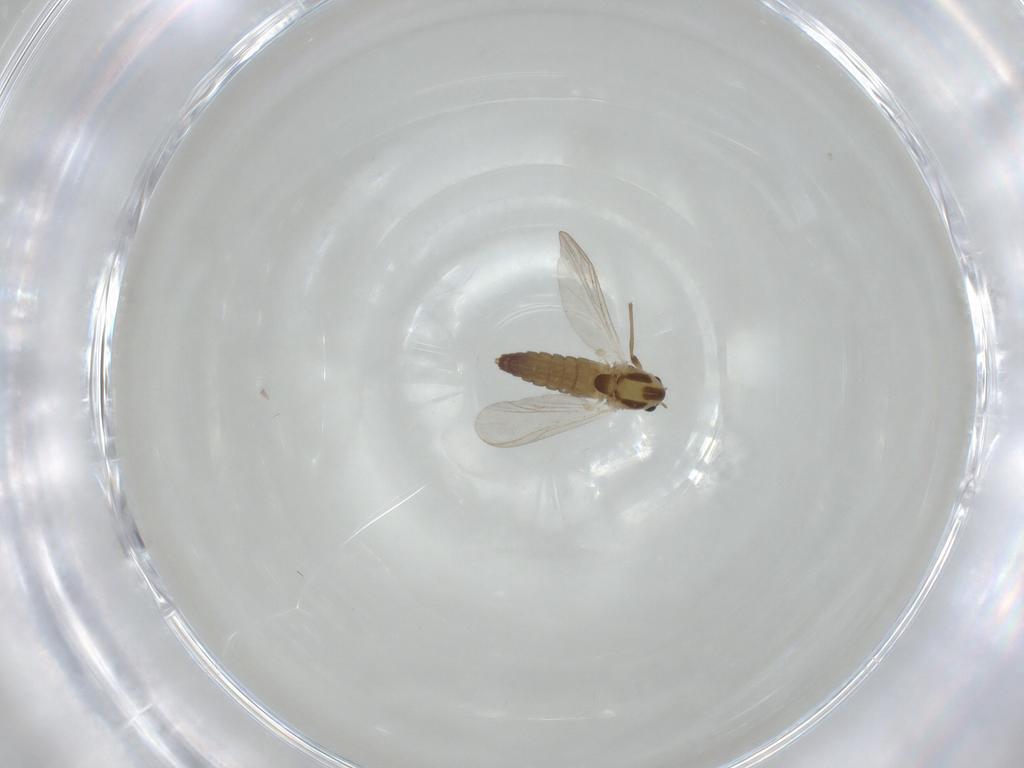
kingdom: Animalia
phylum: Arthropoda
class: Insecta
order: Diptera
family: Chironomidae
